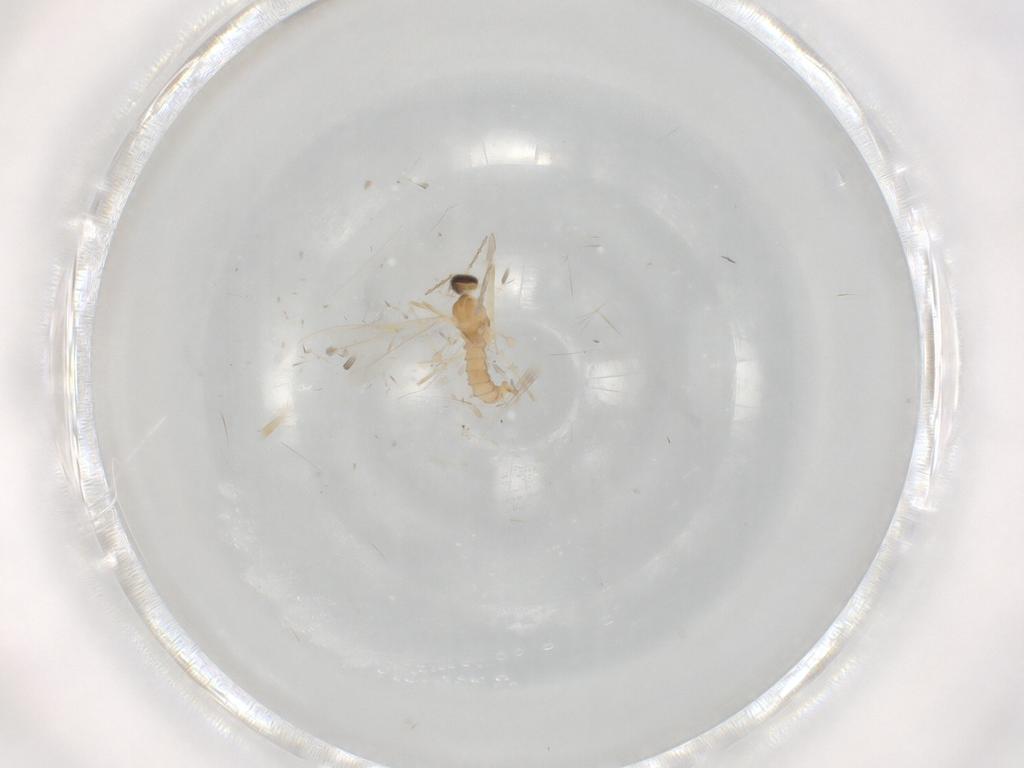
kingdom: Animalia
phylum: Arthropoda
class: Insecta
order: Diptera
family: Cecidomyiidae
